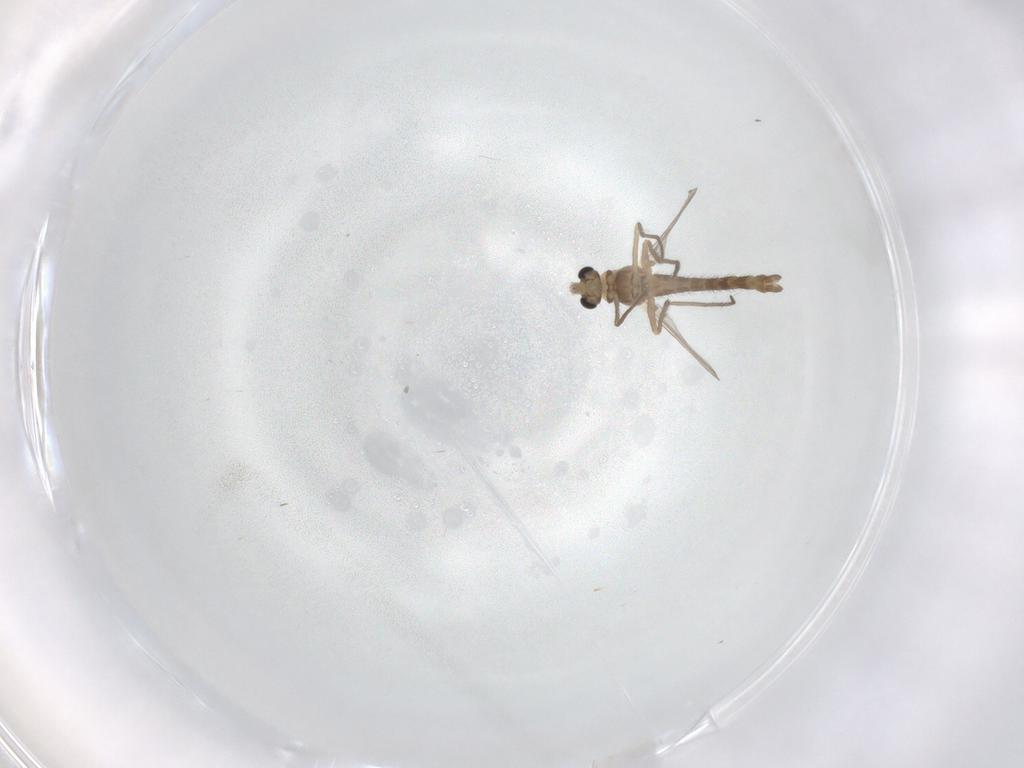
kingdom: Animalia
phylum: Arthropoda
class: Insecta
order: Diptera
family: Chironomidae
